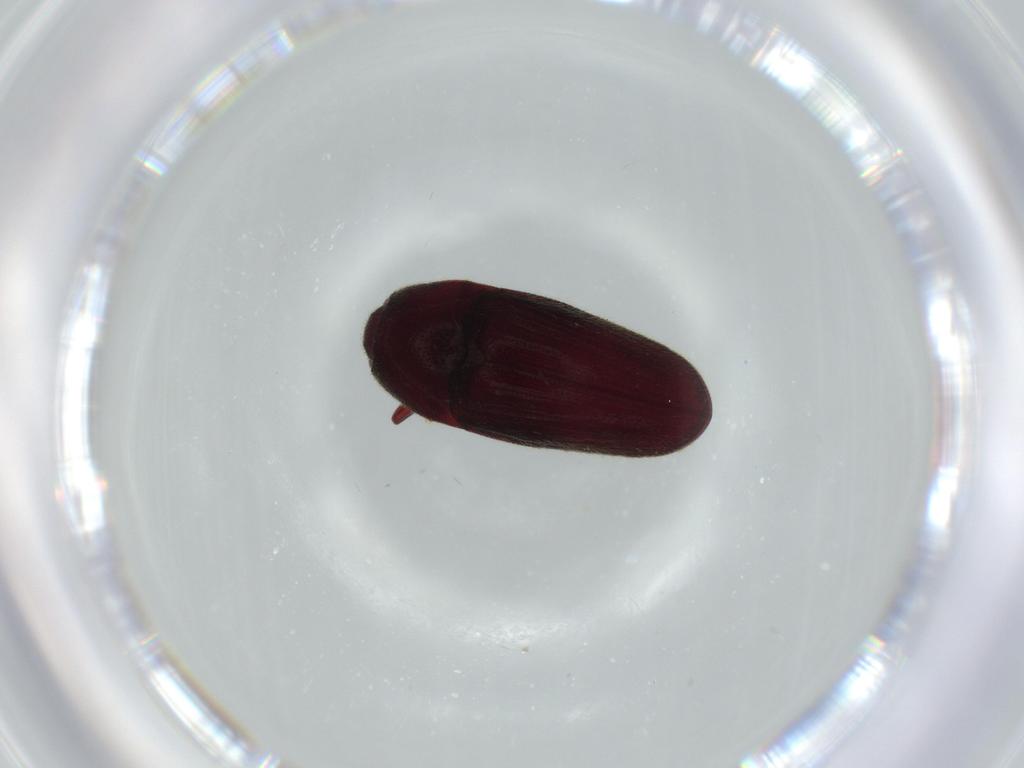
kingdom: Animalia
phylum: Arthropoda
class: Insecta
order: Coleoptera
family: Throscidae
